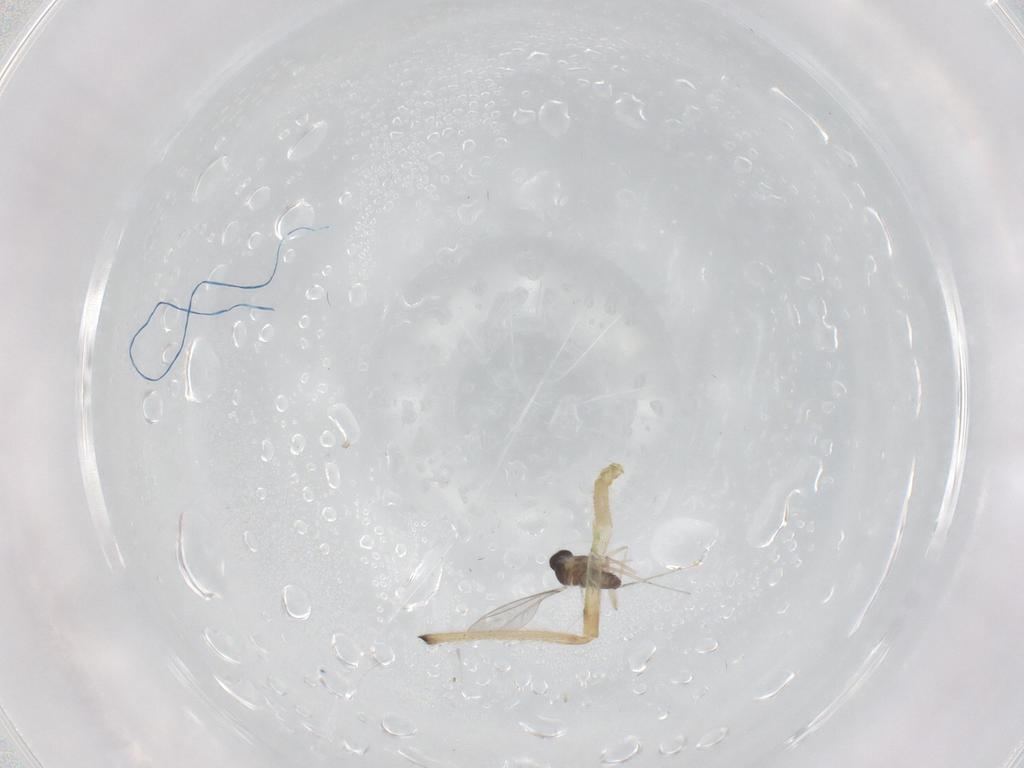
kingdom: Animalia
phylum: Arthropoda
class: Insecta
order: Diptera
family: Cecidomyiidae
